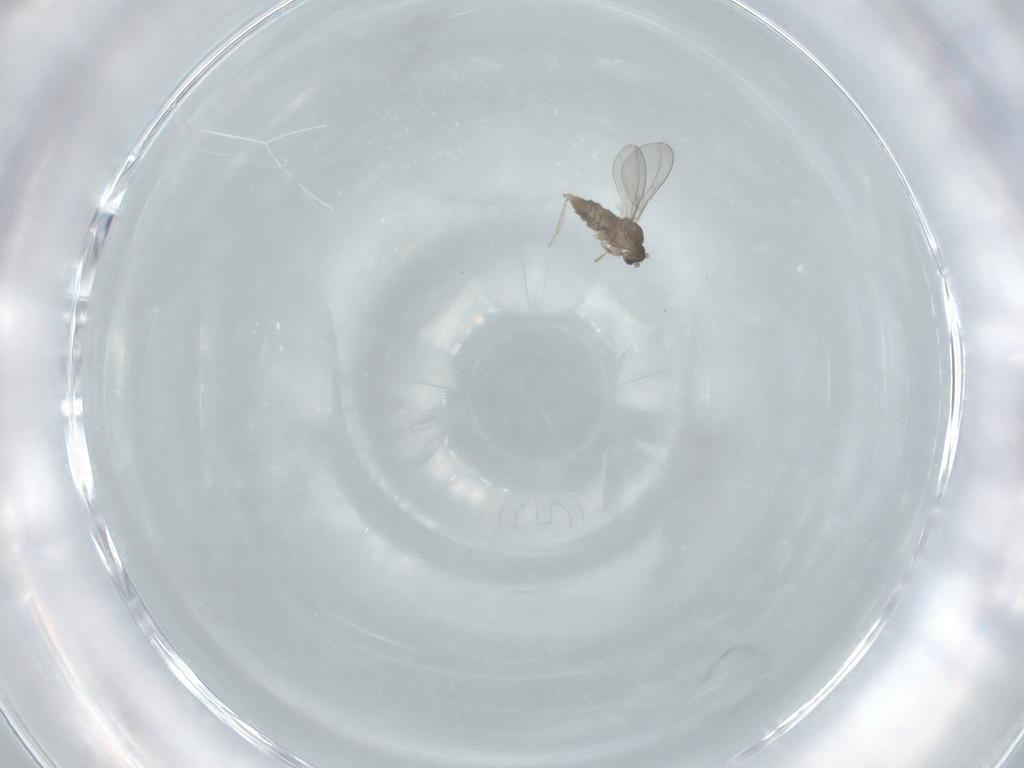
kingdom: Animalia
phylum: Arthropoda
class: Insecta
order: Diptera
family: Cecidomyiidae
